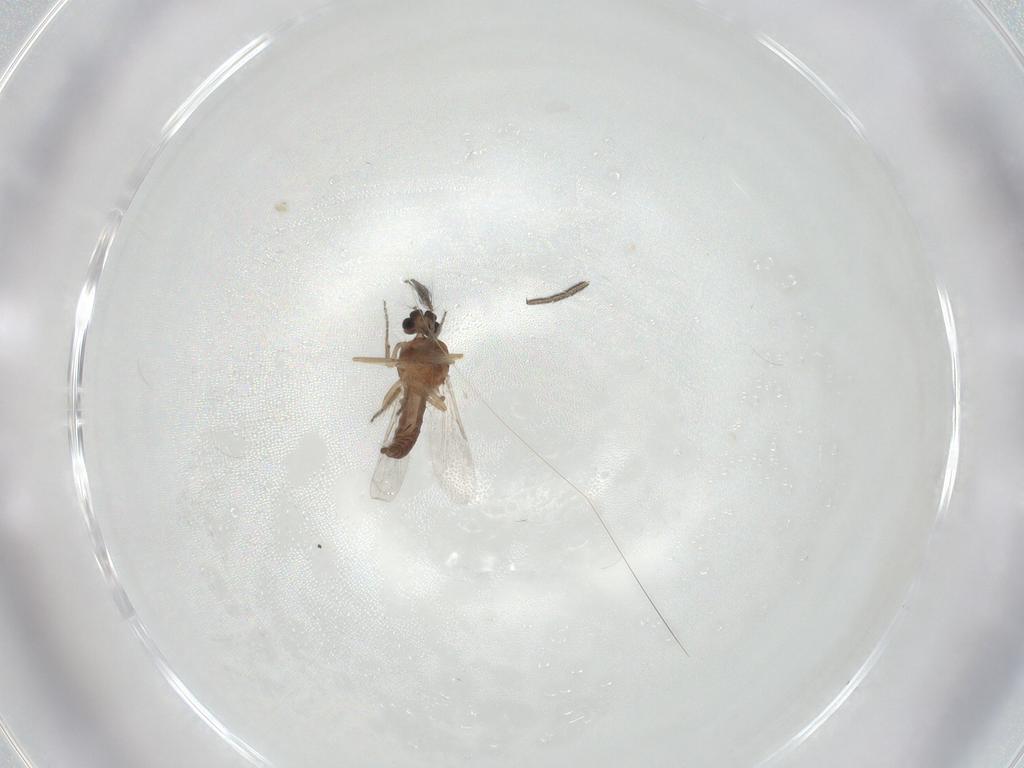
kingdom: Animalia
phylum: Arthropoda
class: Insecta
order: Diptera
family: Ceratopogonidae
